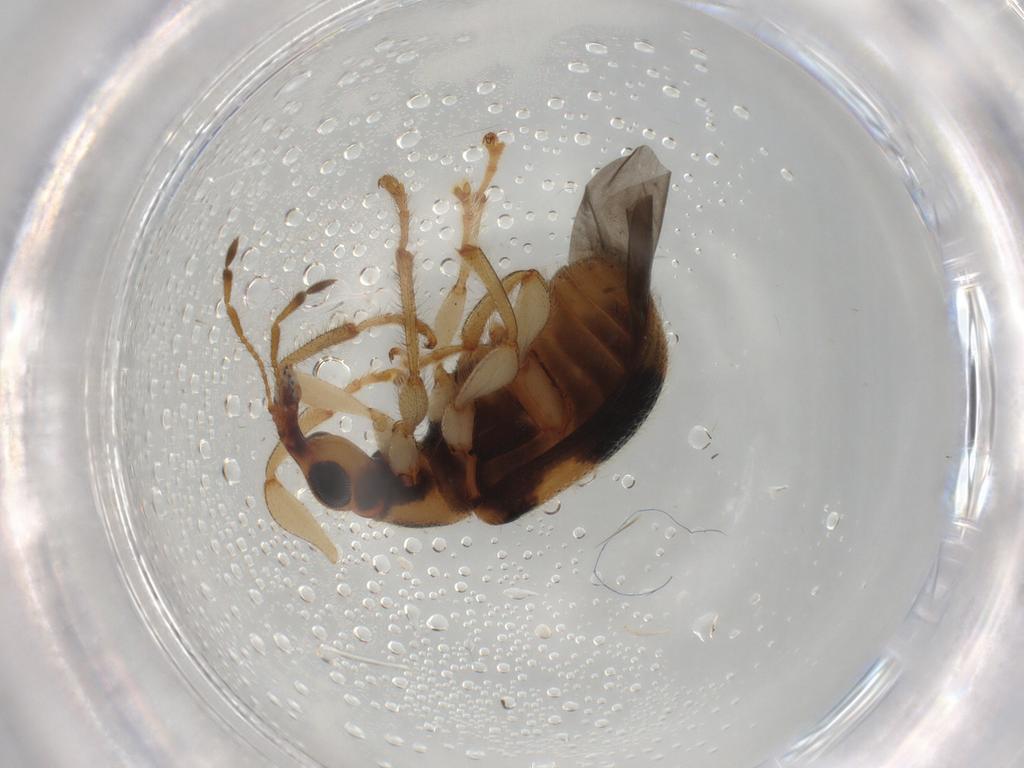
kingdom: Animalia
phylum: Arthropoda
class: Insecta
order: Coleoptera
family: Attelabidae
